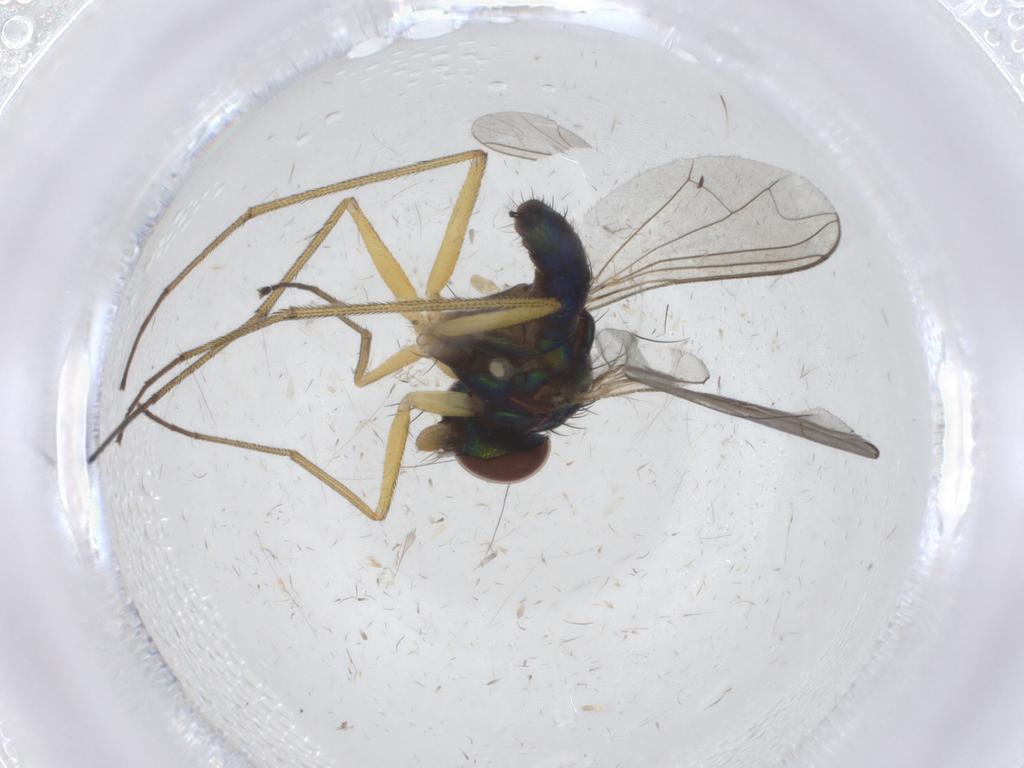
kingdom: Animalia
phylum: Arthropoda
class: Insecta
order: Diptera
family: Dolichopodidae
